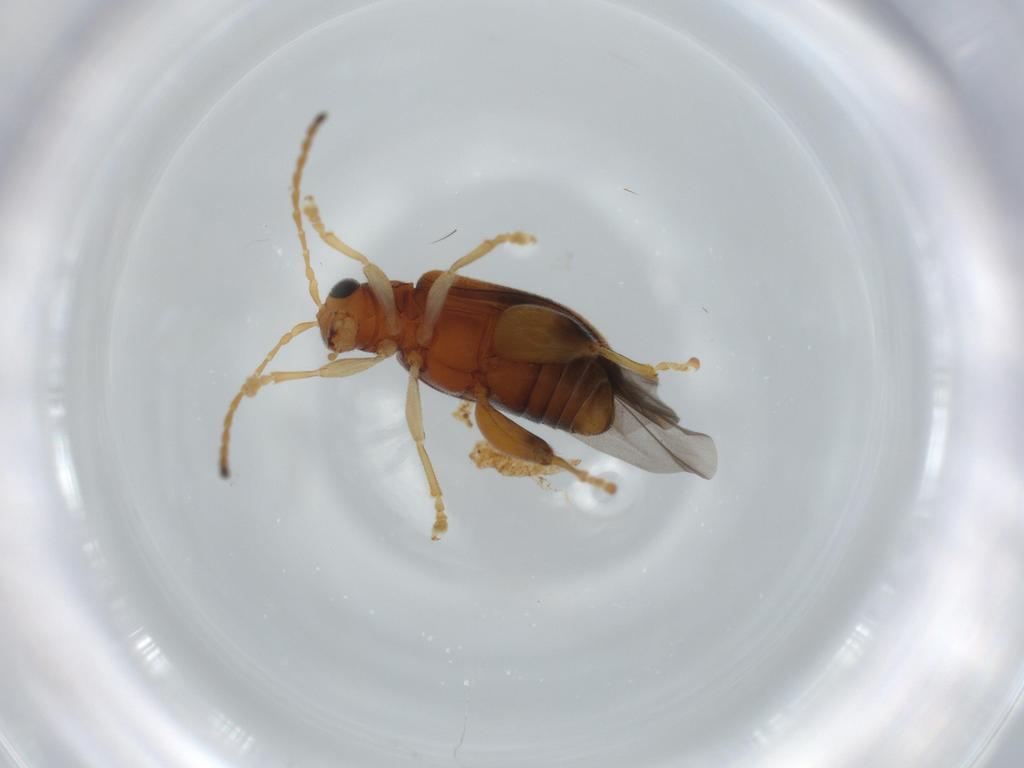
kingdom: Animalia
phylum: Arthropoda
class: Insecta
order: Coleoptera
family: Chrysomelidae
